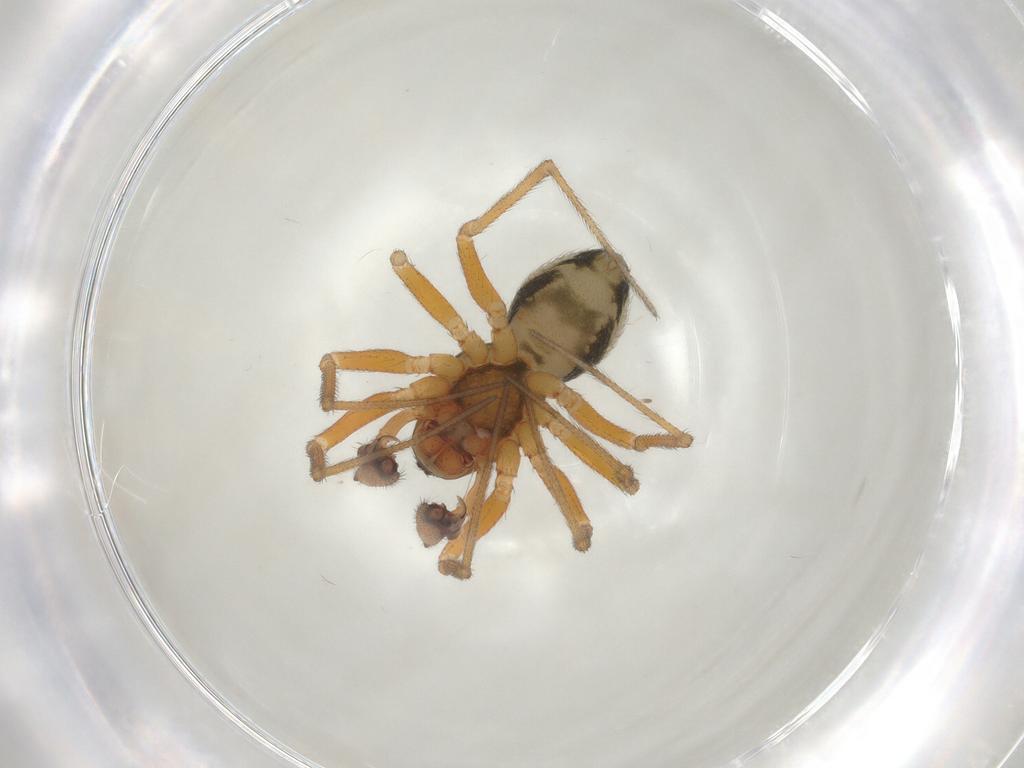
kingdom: Animalia
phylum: Arthropoda
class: Arachnida
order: Araneae
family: Linyphiidae
